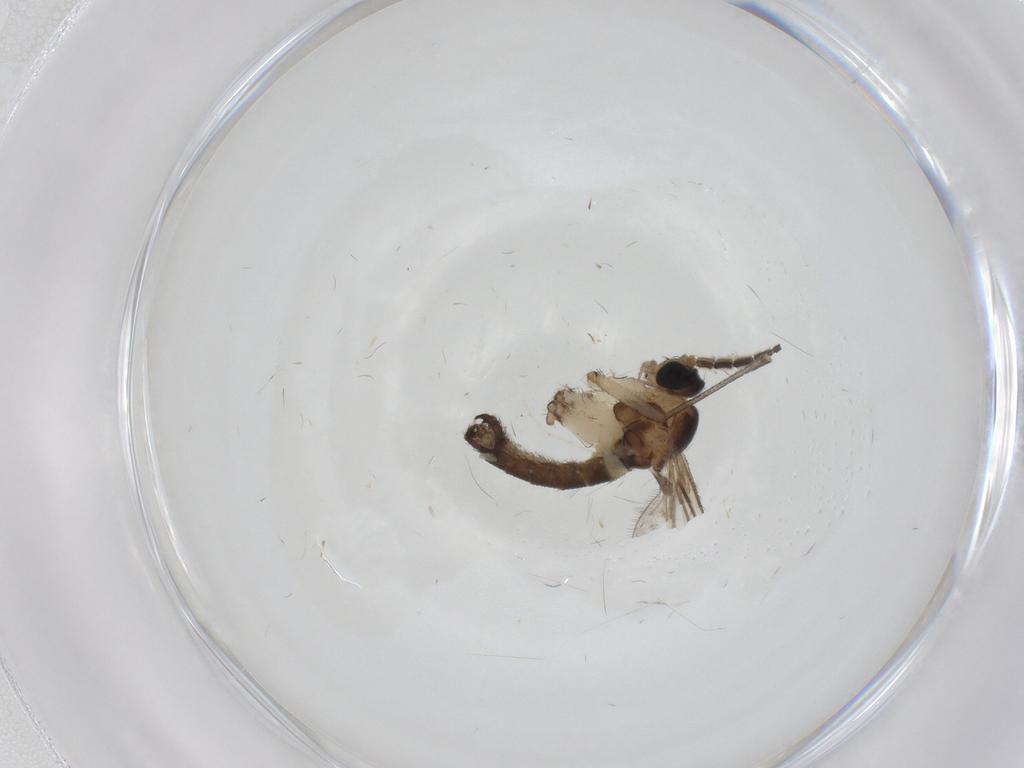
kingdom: Animalia
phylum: Arthropoda
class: Insecta
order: Diptera
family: Sciaridae
